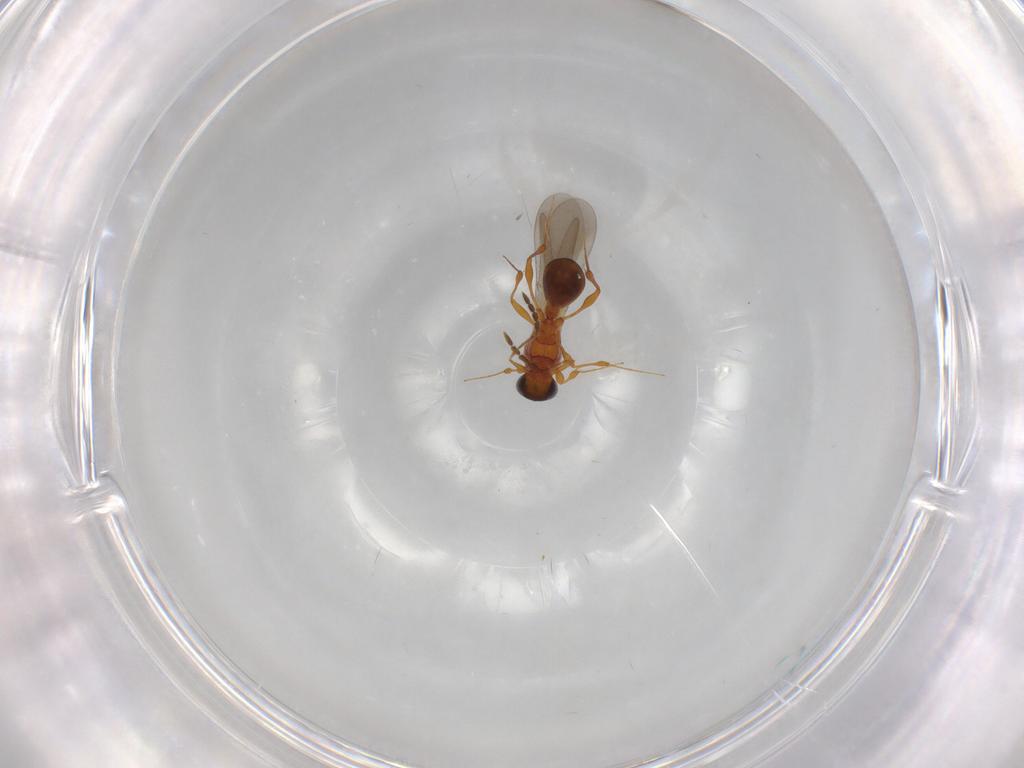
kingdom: Animalia
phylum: Arthropoda
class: Insecta
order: Hymenoptera
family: Platygastridae
